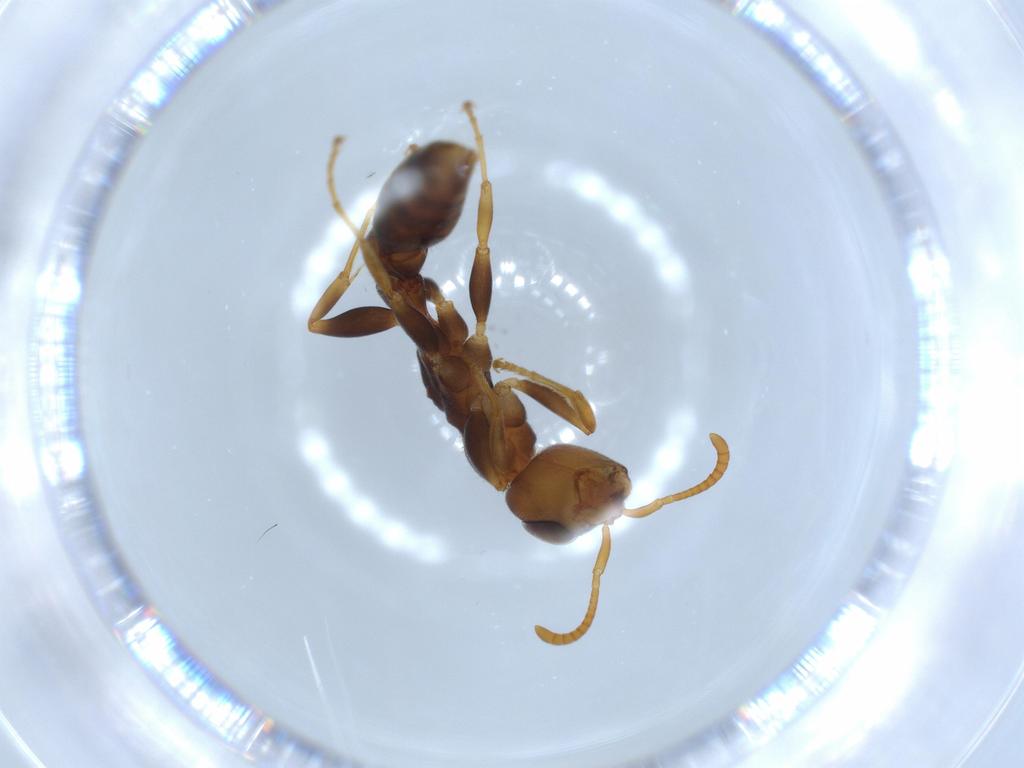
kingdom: Animalia
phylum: Arthropoda
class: Insecta
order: Hymenoptera
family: Formicidae
